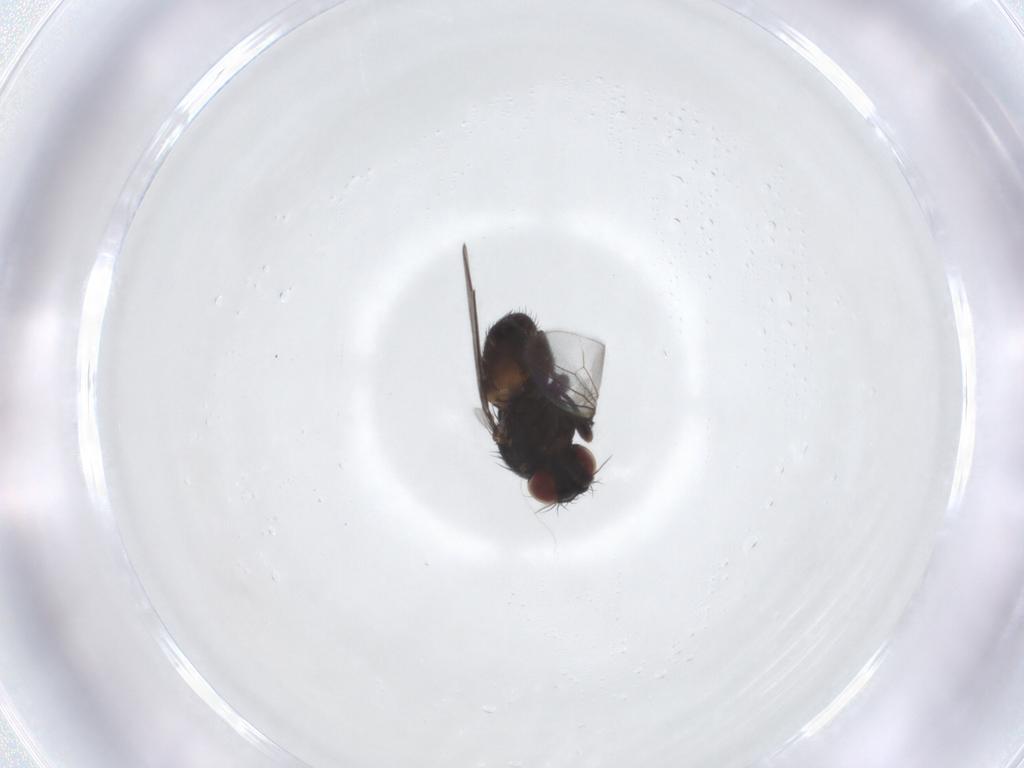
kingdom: Animalia
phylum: Arthropoda
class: Insecta
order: Diptera
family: Milichiidae
